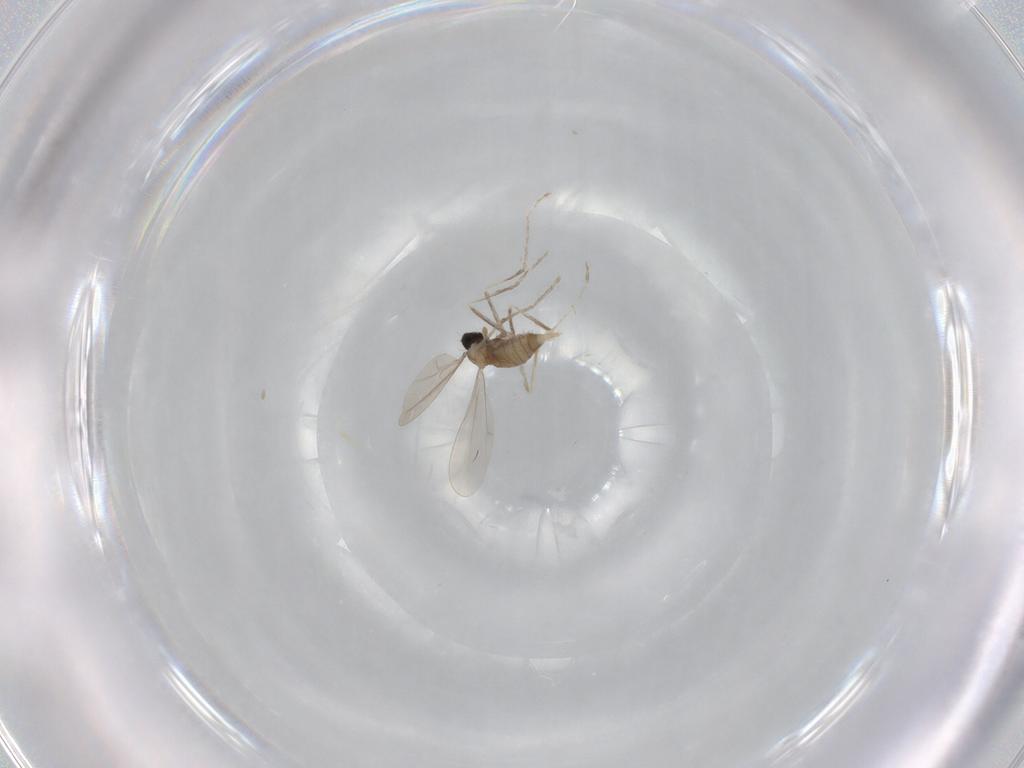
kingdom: Animalia
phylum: Arthropoda
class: Insecta
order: Diptera
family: Cecidomyiidae
